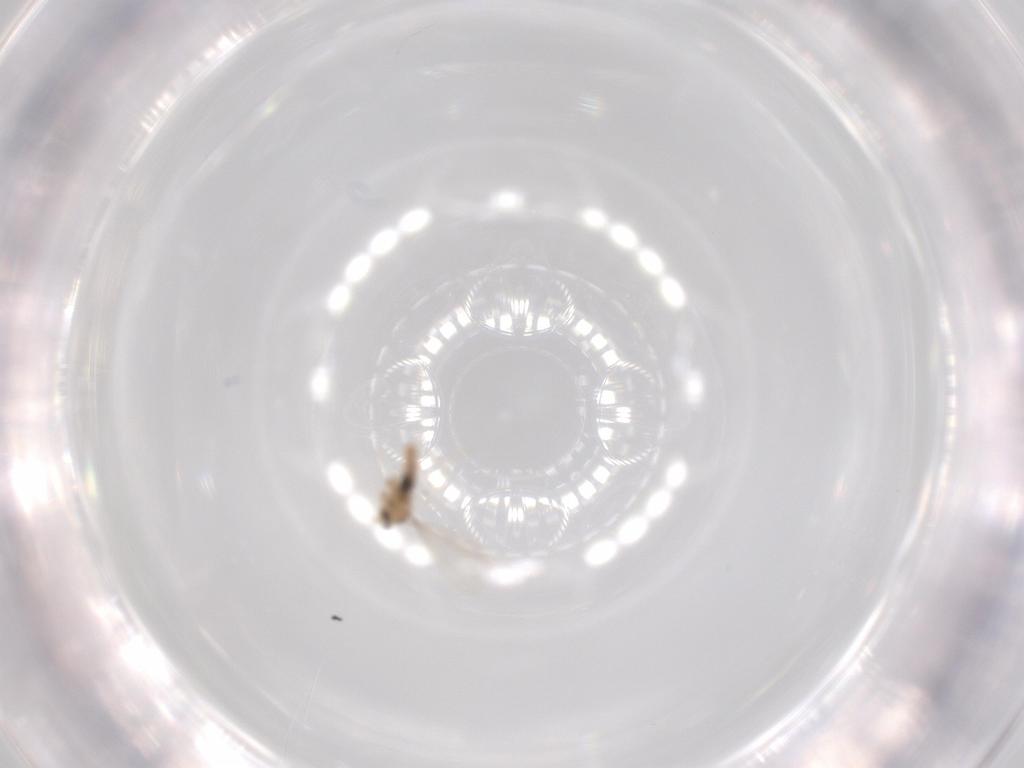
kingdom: Animalia
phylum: Arthropoda
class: Insecta
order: Diptera
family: Cecidomyiidae
